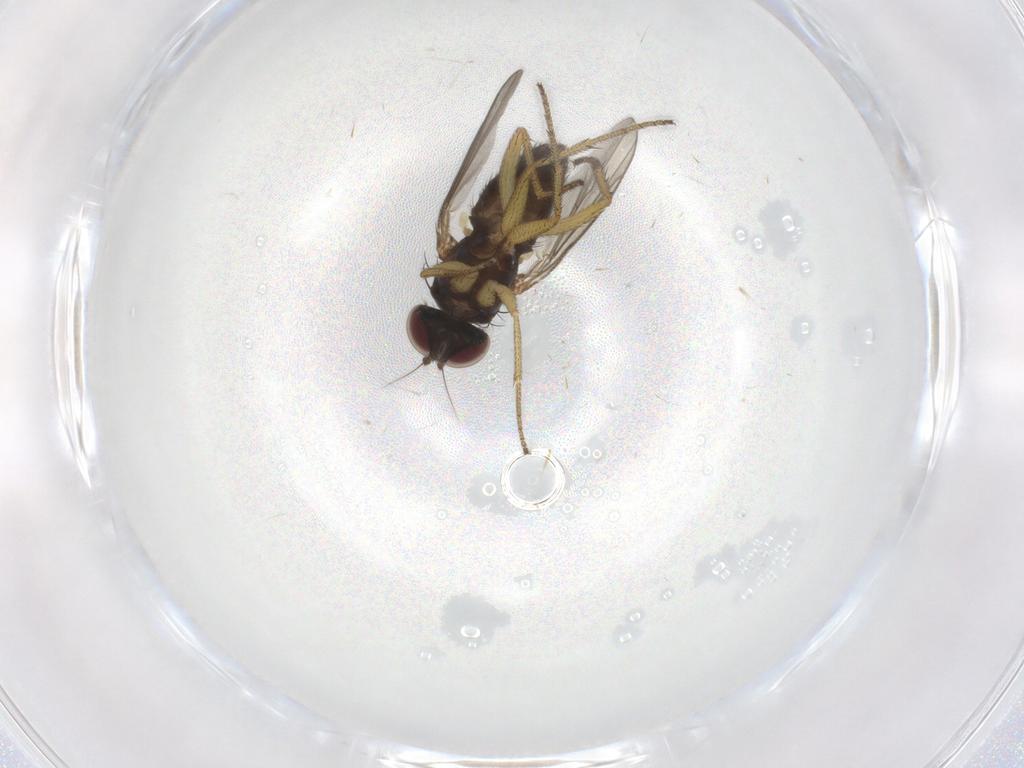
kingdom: Animalia
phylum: Arthropoda
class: Insecta
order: Diptera
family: Dolichopodidae
